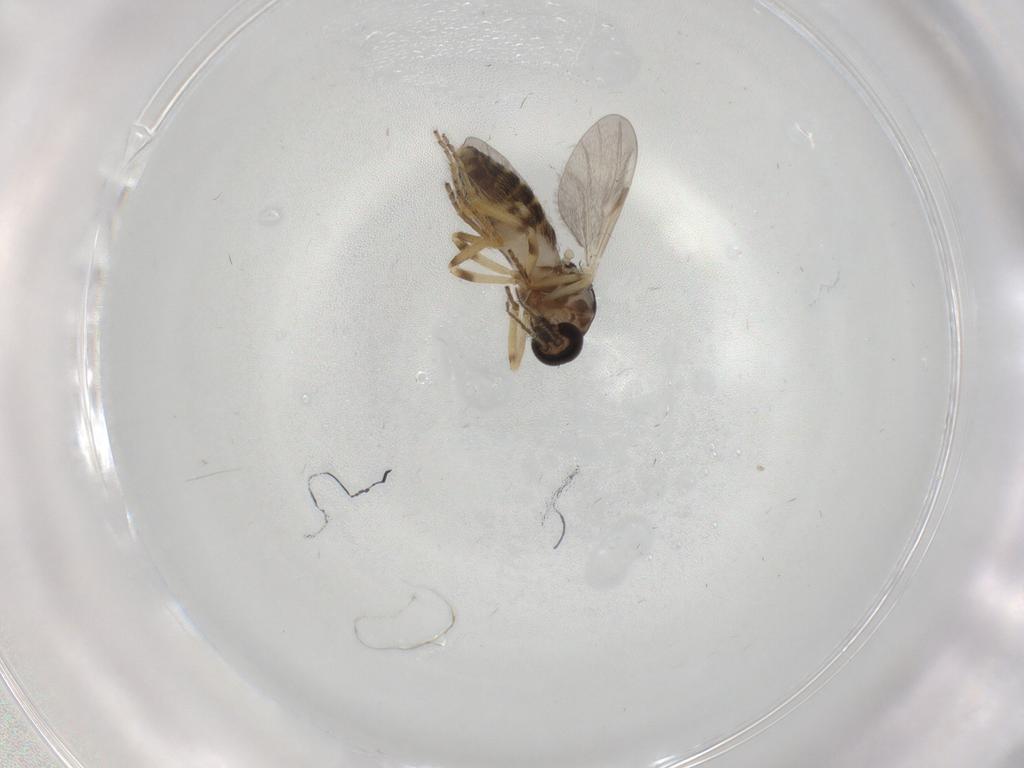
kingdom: Animalia
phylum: Arthropoda
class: Insecta
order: Diptera
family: Ceratopogonidae
